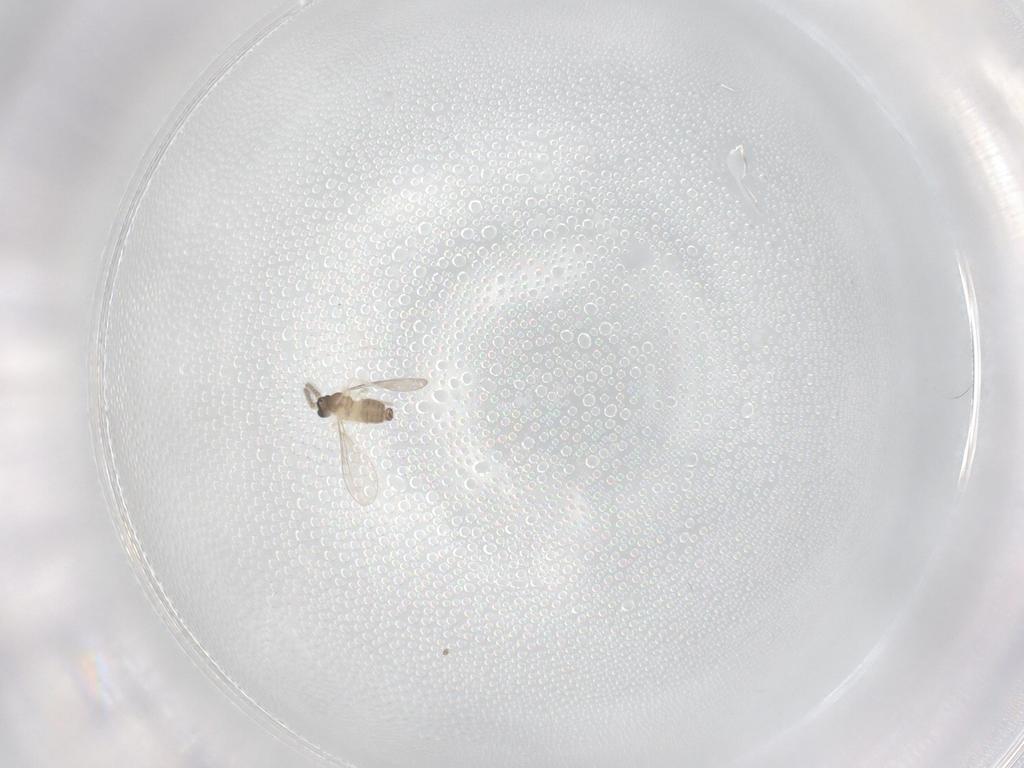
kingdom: Animalia
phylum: Arthropoda
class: Insecta
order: Diptera
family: Cecidomyiidae
